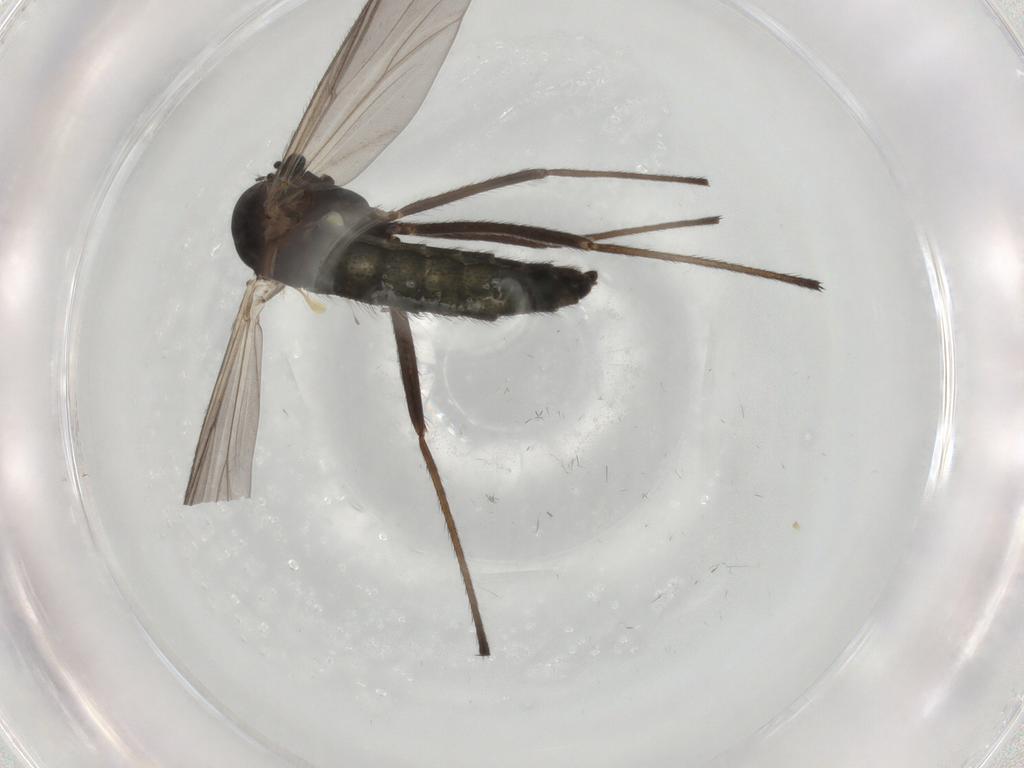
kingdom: Animalia
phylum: Arthropoda
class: Insecta
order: Diptera
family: Chironomidae
